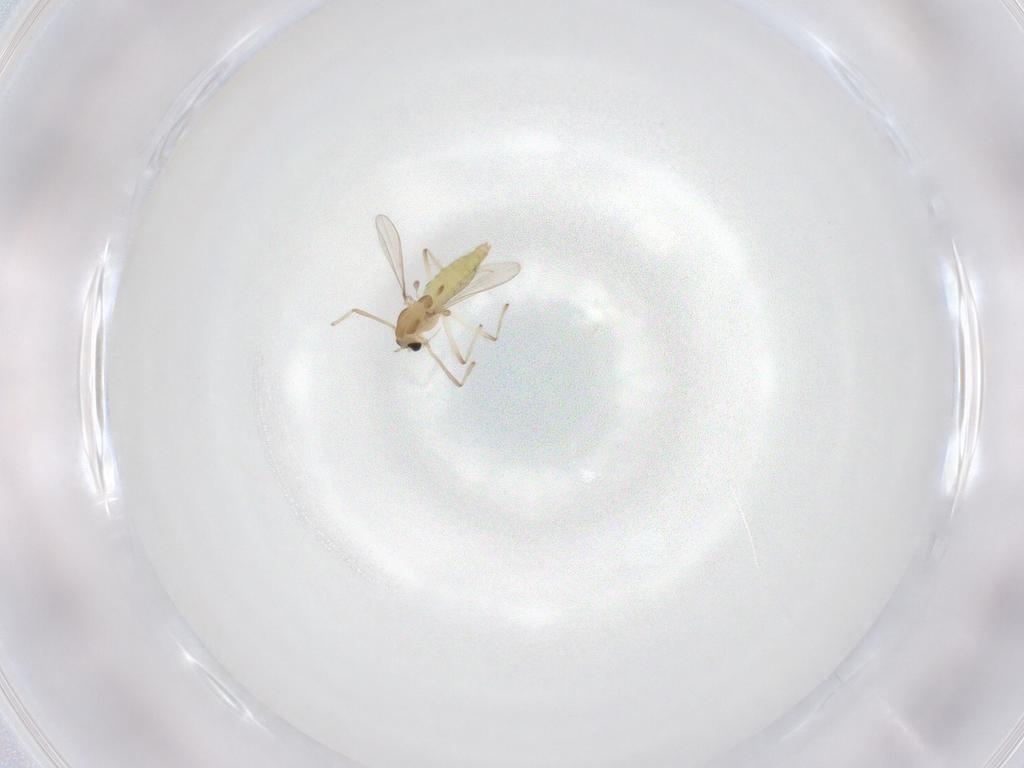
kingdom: Animalia
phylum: Arthropoda
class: Insecta
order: Diptera
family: Chironomidae
